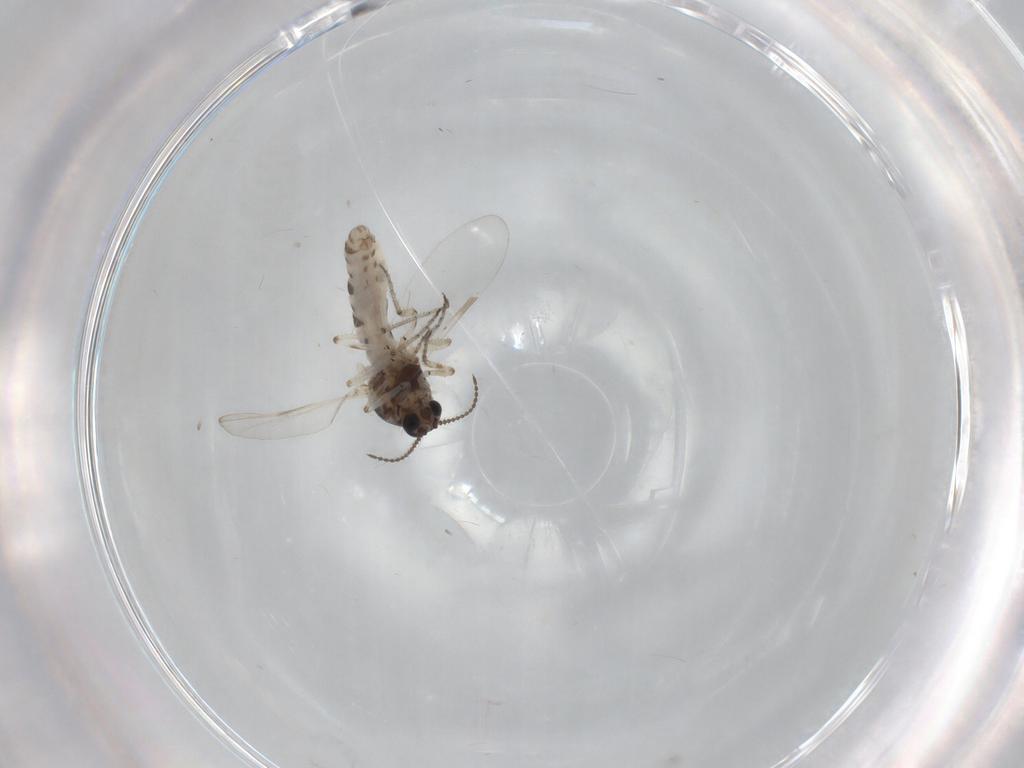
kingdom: Animalia
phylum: Arthropoda
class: Insecta
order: Diptera
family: Ceratopogonidae
